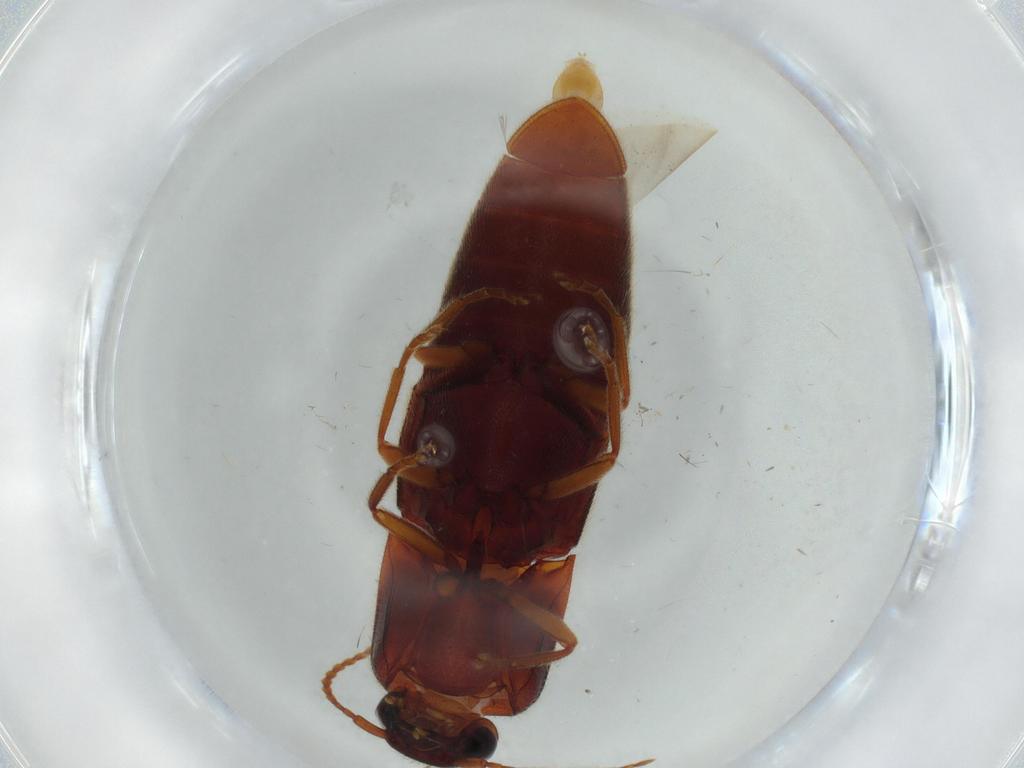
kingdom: Animalia
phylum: Arthropoda
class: Insecta
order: Coleoptera
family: Elateridae
